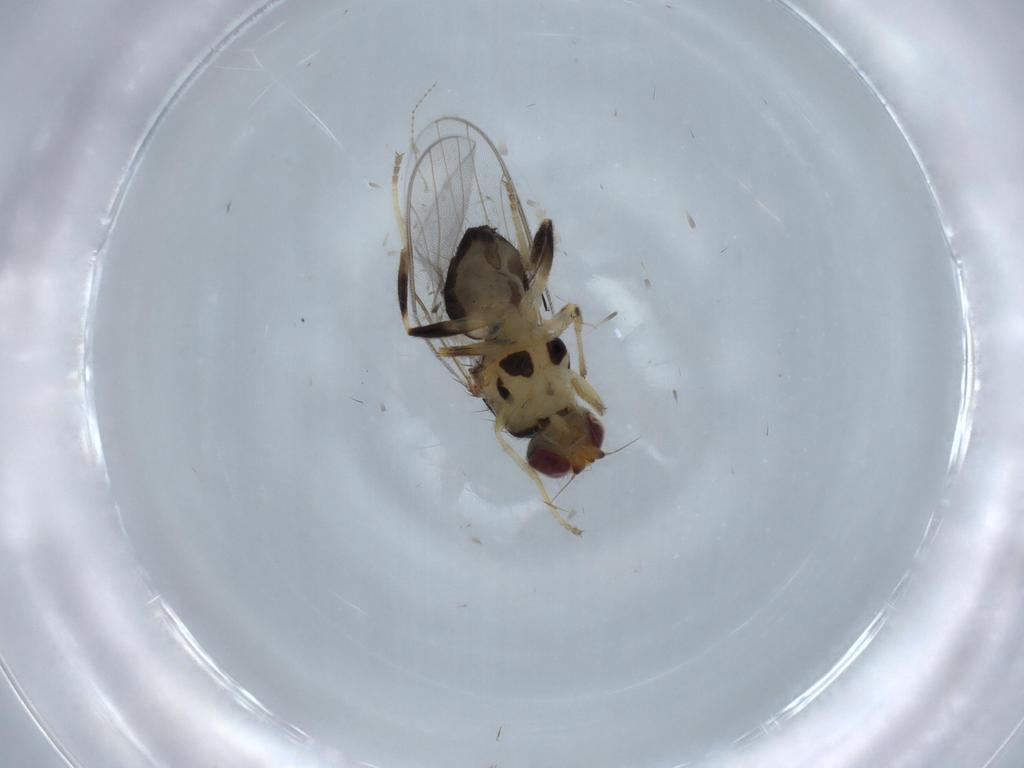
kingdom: Animalia
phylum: Arthropoda
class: Insecta
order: Diptera
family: Chloropidae
